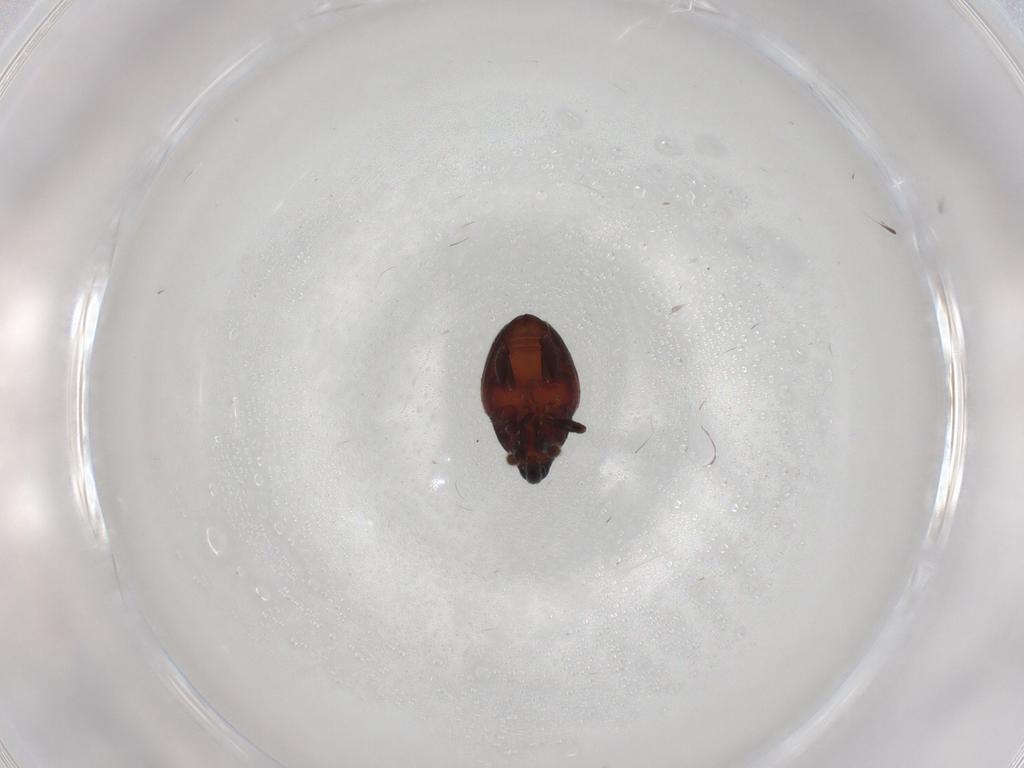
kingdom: Animalia
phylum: Arthropoda
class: Insecta
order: Coleoptera
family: Ptilodactylidae
